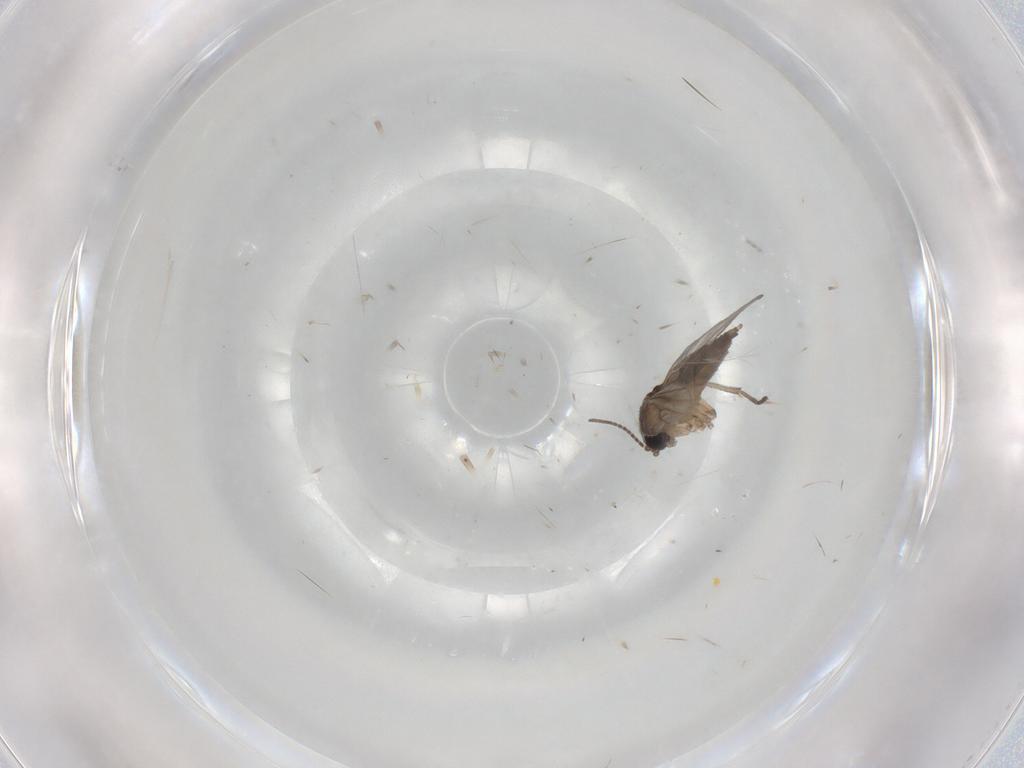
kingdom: Animalia
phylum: Arthropoda
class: Insecta
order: Diptera
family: Sciaridae
